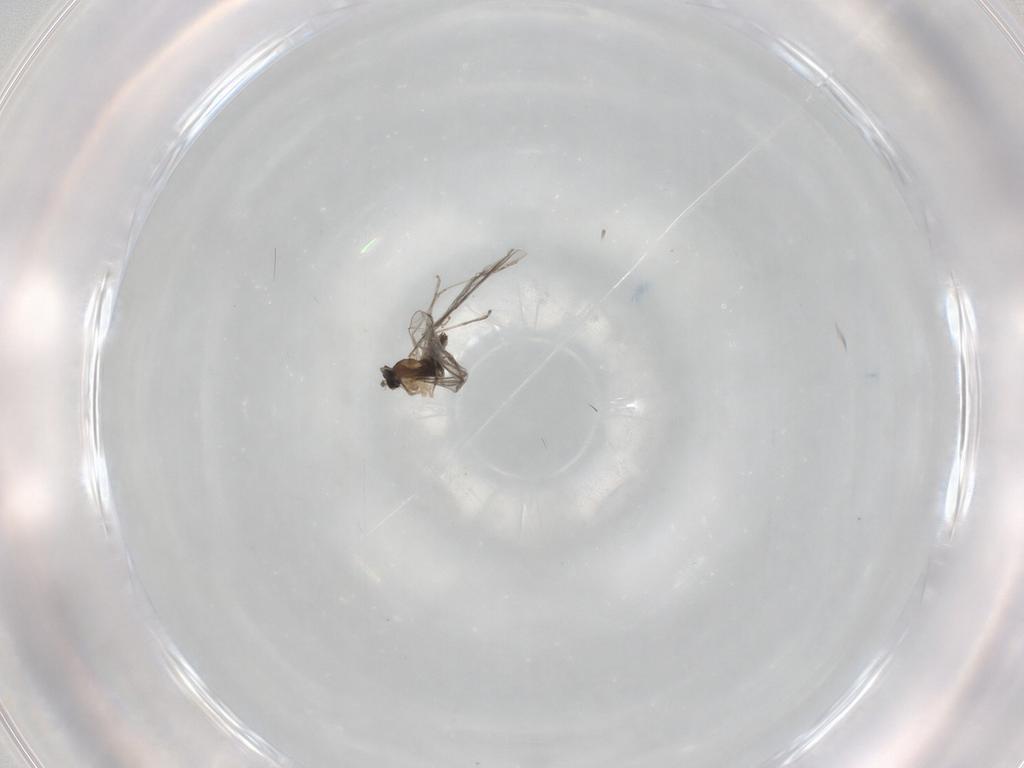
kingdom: Animalia
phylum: Arthropoda
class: Insecta
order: Diptera
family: Cecidomyiidae
